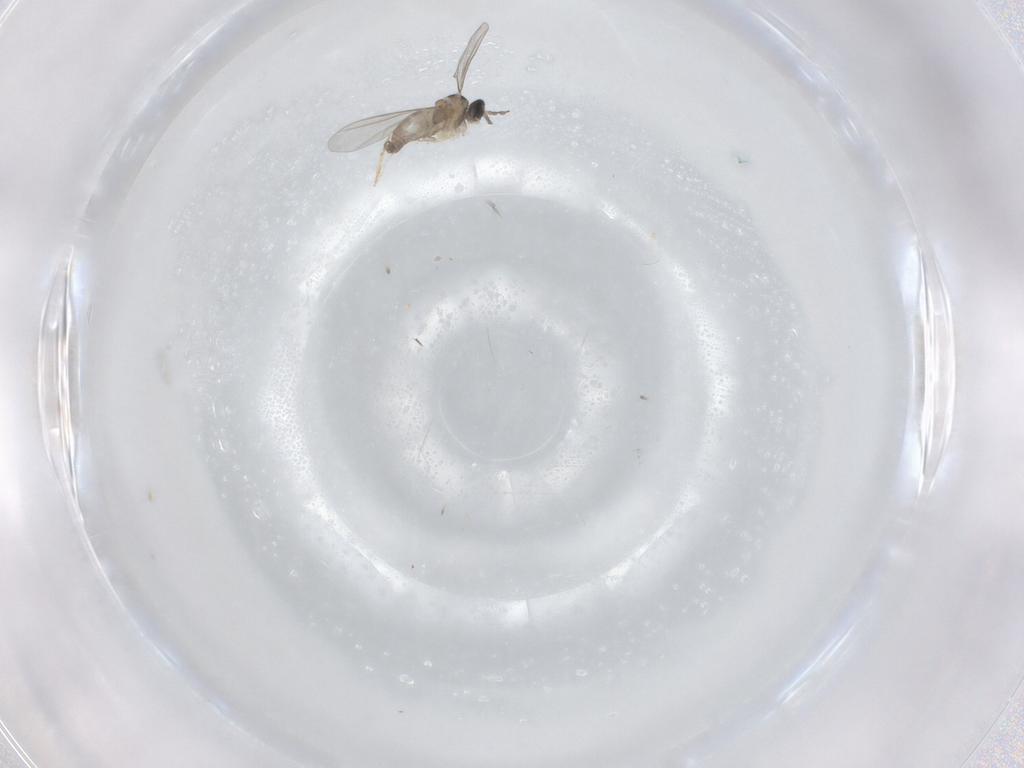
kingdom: Animalia
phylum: Arthropoda
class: Insecta
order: Diptera
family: Cecidomyiidae
